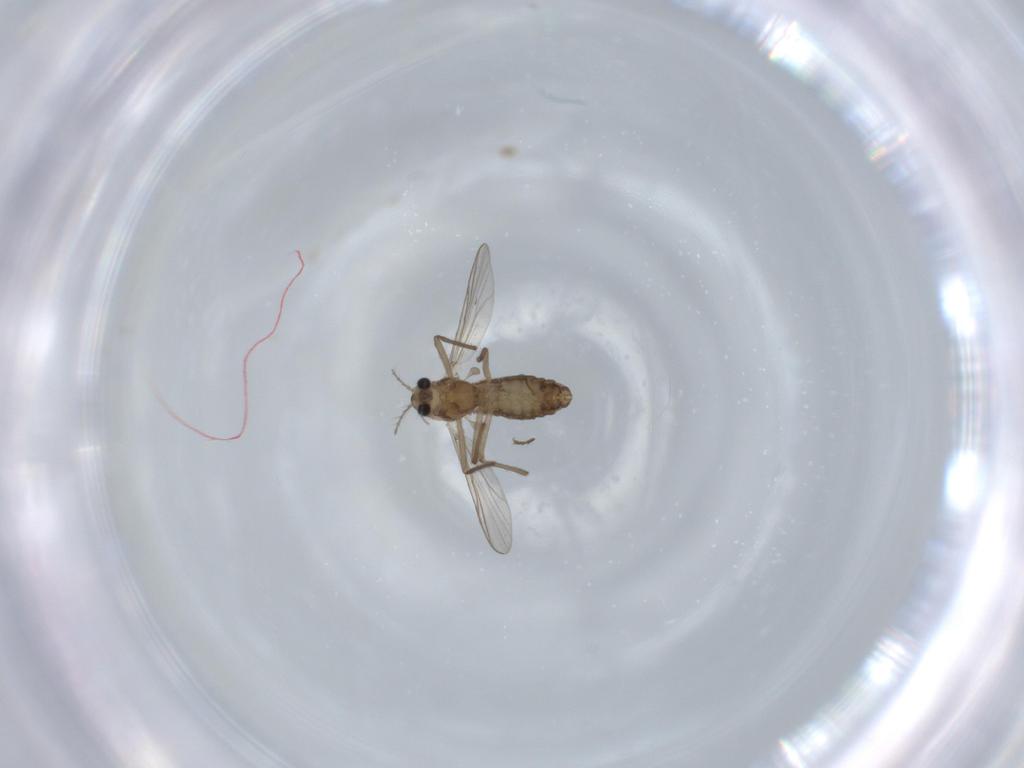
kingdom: Animalia
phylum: Arthropoda
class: Insecta
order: Diptera
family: Chironomidae
